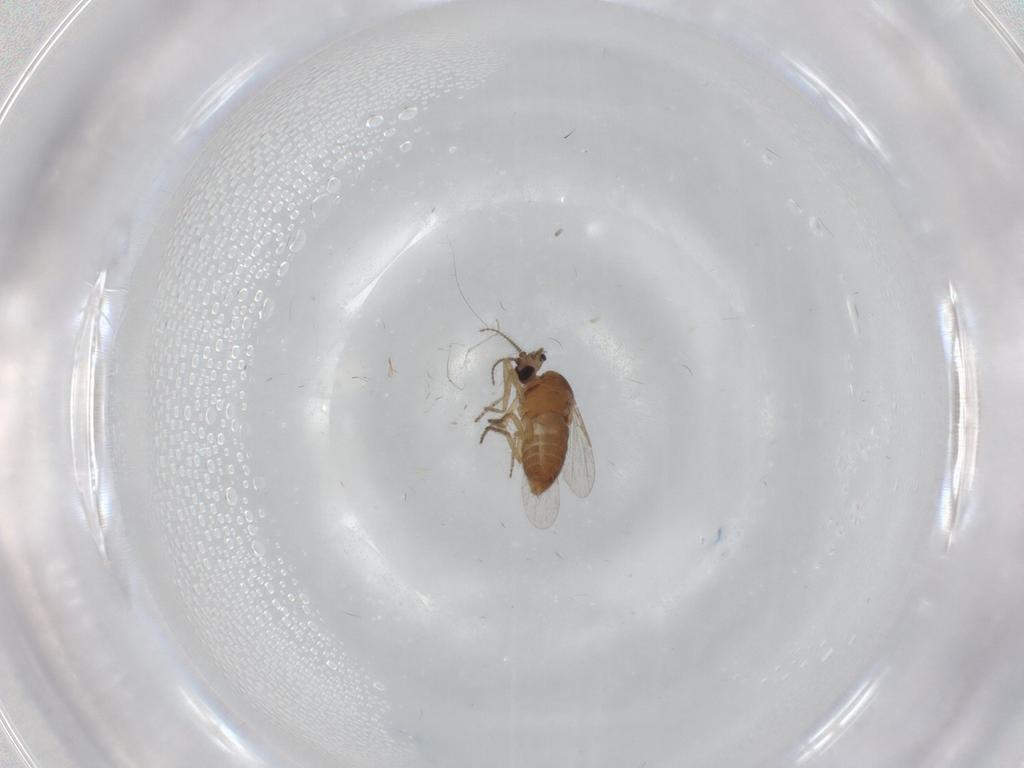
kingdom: Animalia
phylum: Arthropoda
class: Insecta
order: Diptera
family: Ceratopogonidae
